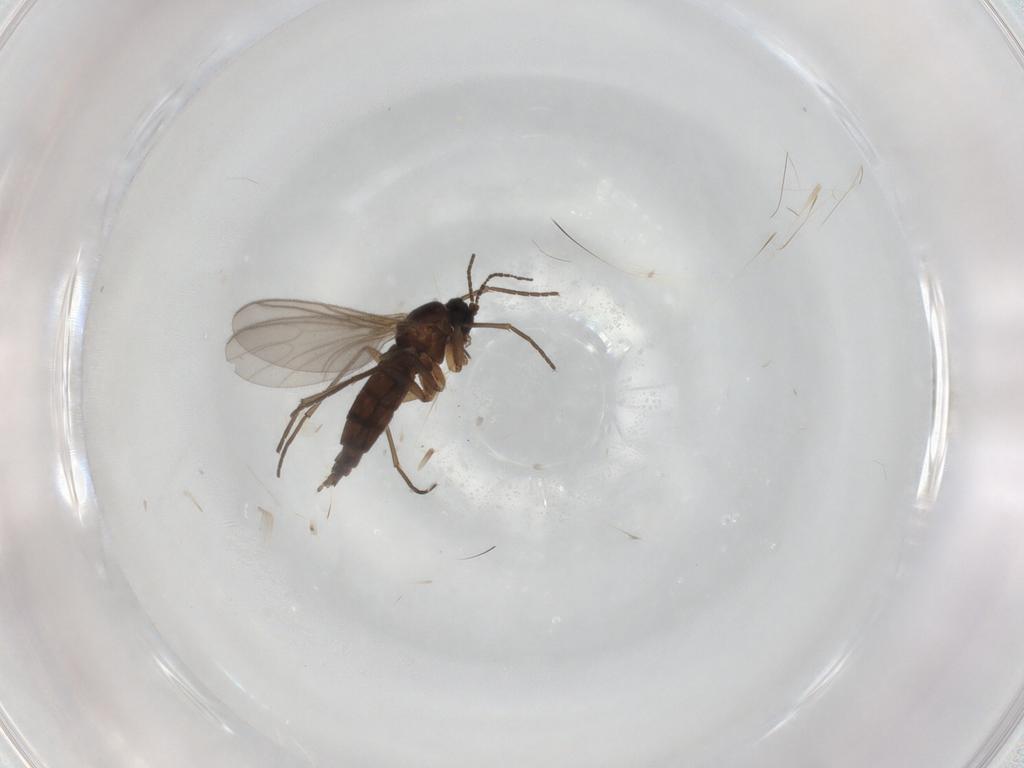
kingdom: Animalia
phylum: Arthropoda
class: Insecta
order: Diptera
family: Sciaridae
